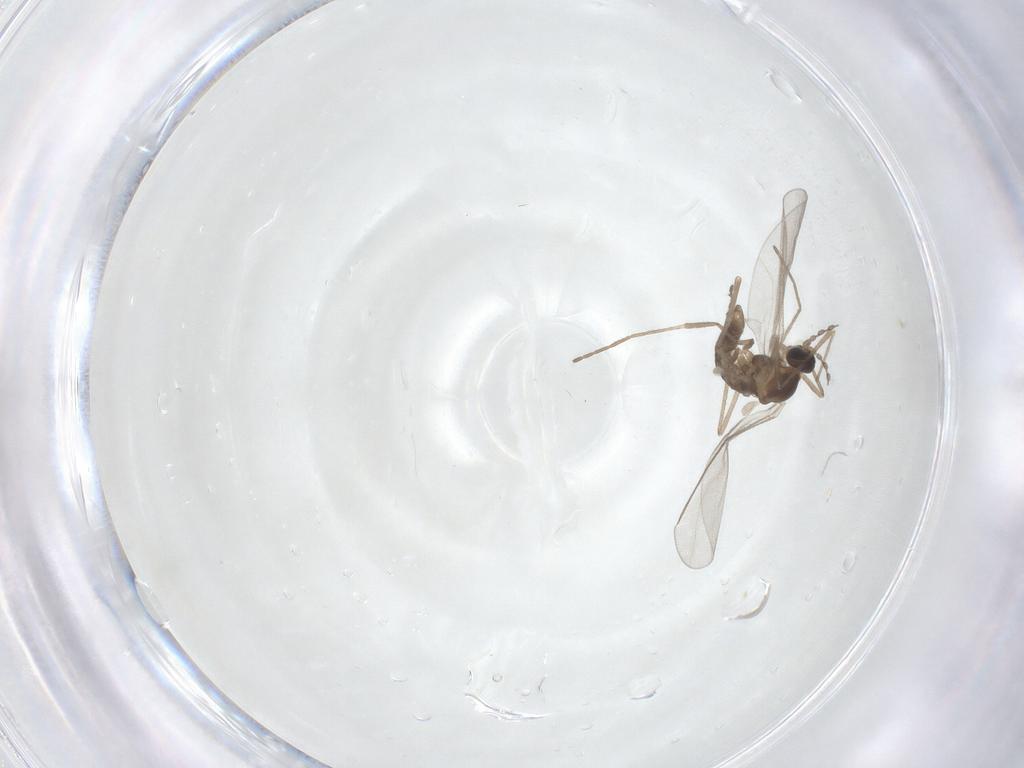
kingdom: Animalia
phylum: Arthropoda
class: Insecta
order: Diptera
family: Cecidomyiidae
